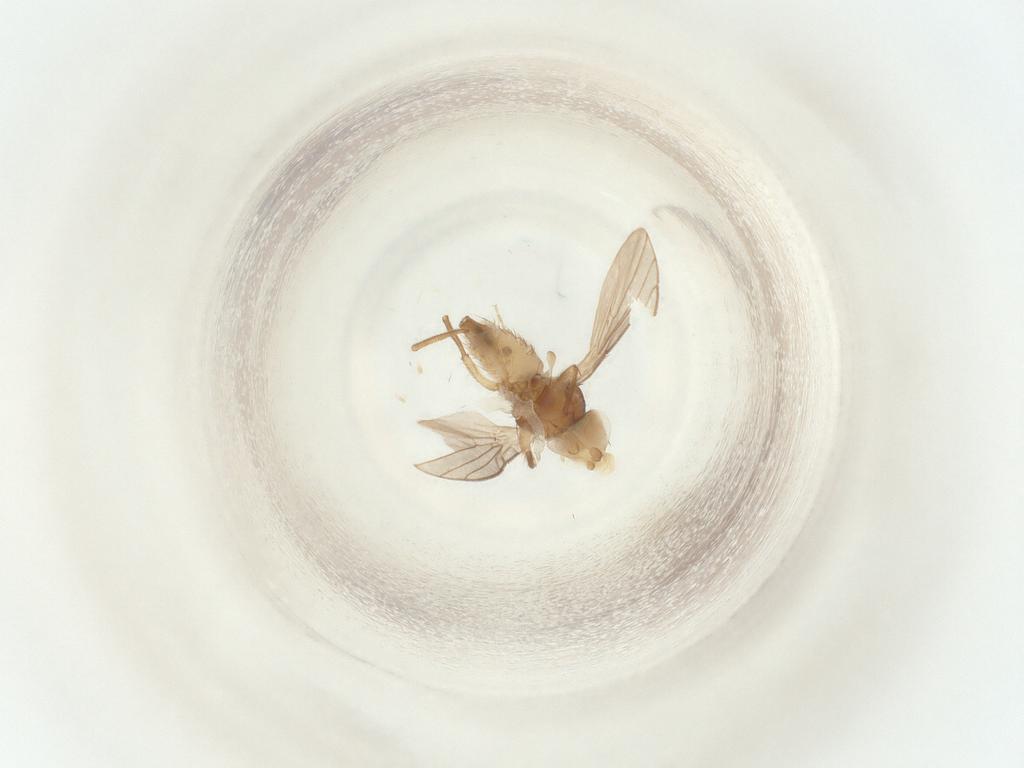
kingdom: Animalia
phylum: Arthropoda
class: Insecta
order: Diptera
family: Agromyzidae
